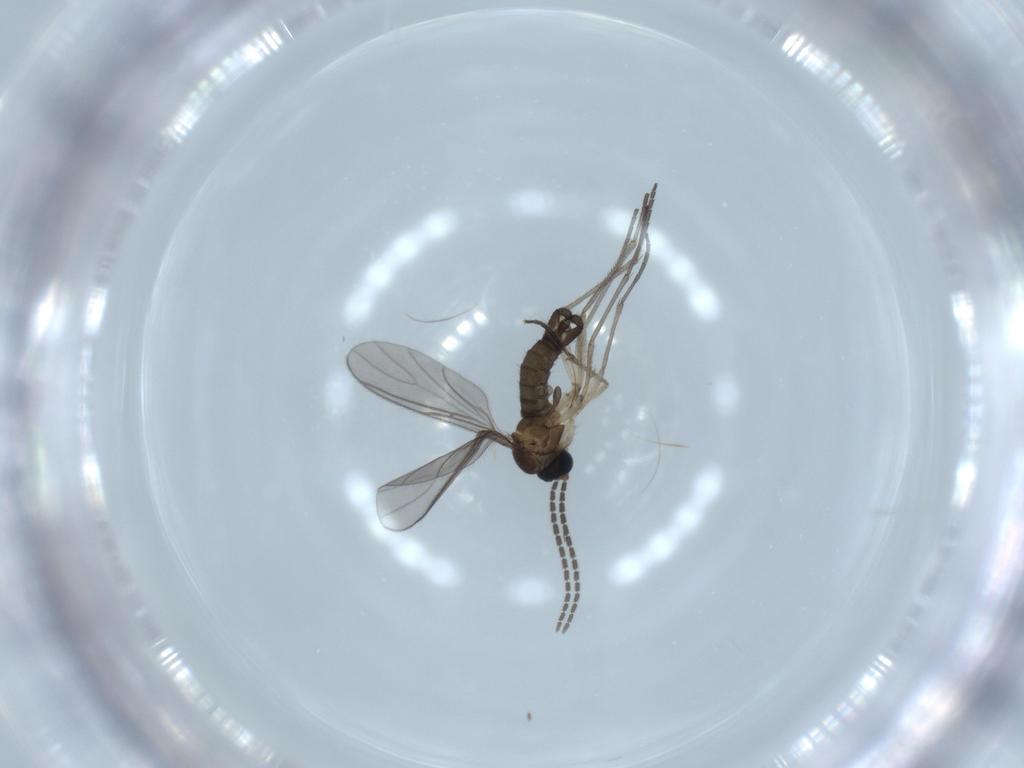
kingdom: Animalia
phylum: Arthropoda
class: Insecta
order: Diptera
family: Sciaridae
